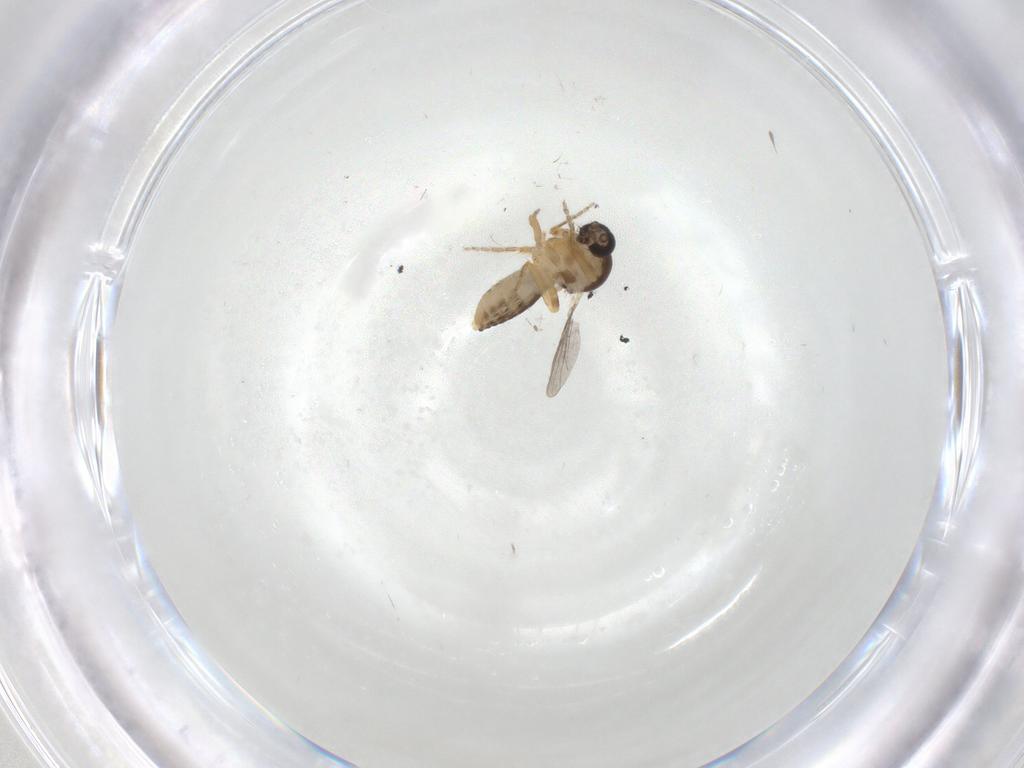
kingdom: Animalia
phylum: Arthropoda
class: Insecta
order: Diptera
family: Ceratopogonidae
